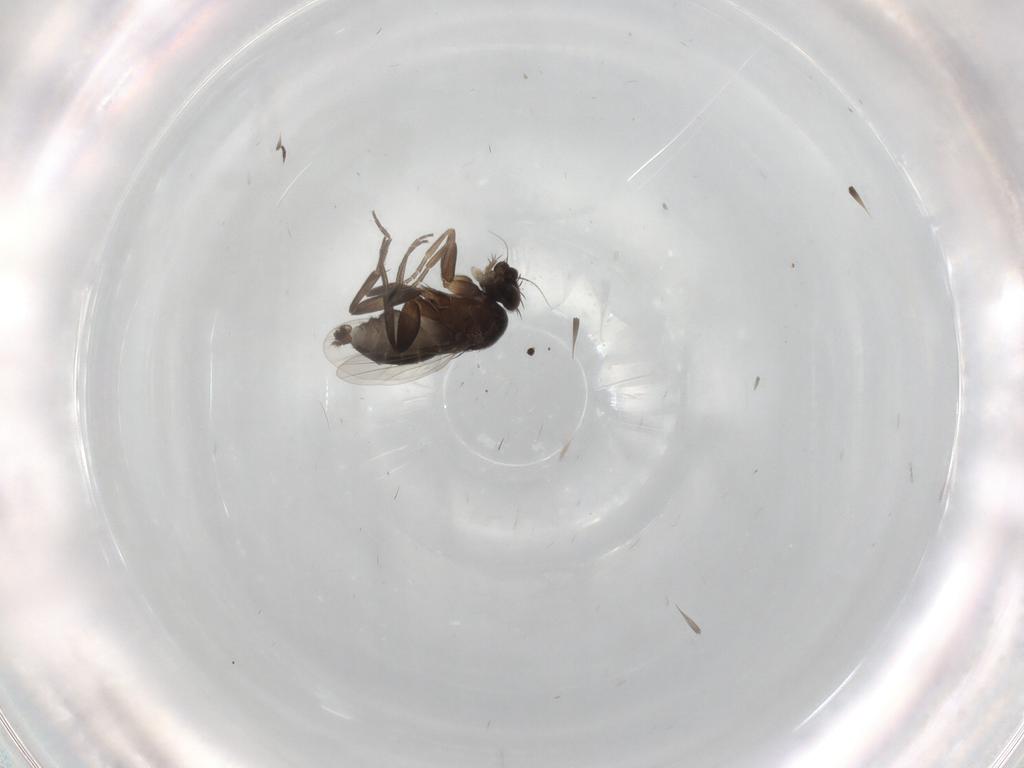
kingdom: Animalia
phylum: Arthropoda
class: Insecta
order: Diptera
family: Phoridae
